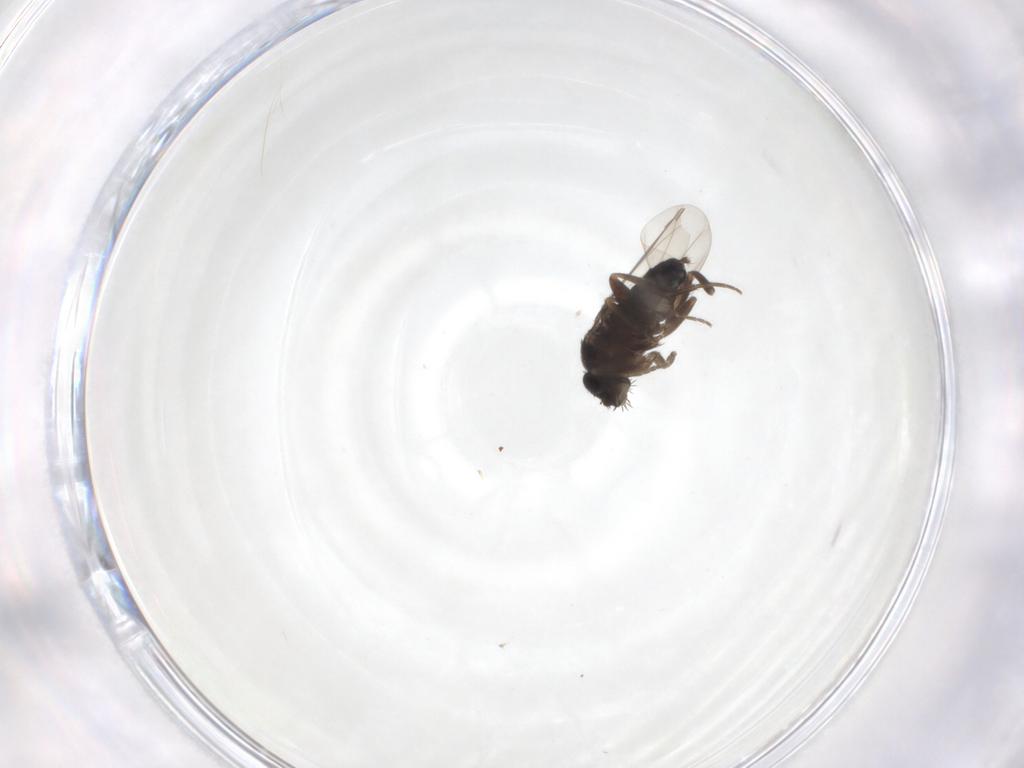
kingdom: Animalia
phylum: Arthropoda
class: Insecta
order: Diptera
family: Phoridae
